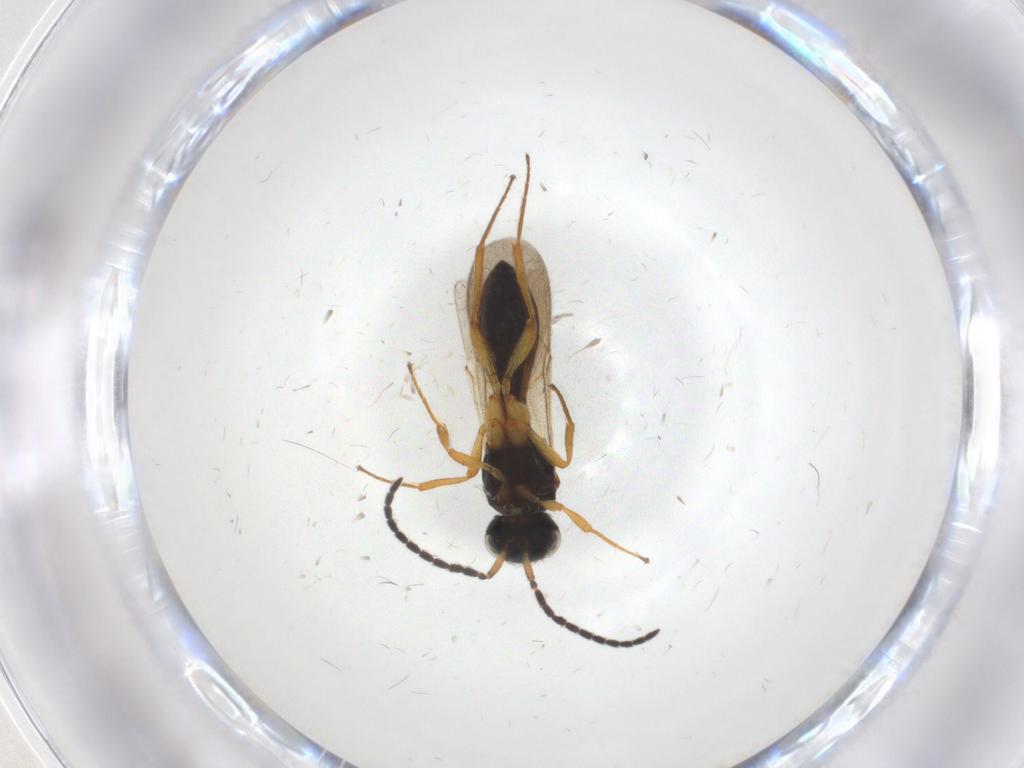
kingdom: Animalia
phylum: Arthropoda
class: Insecta
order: Hymenoptera
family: Scelionidae
